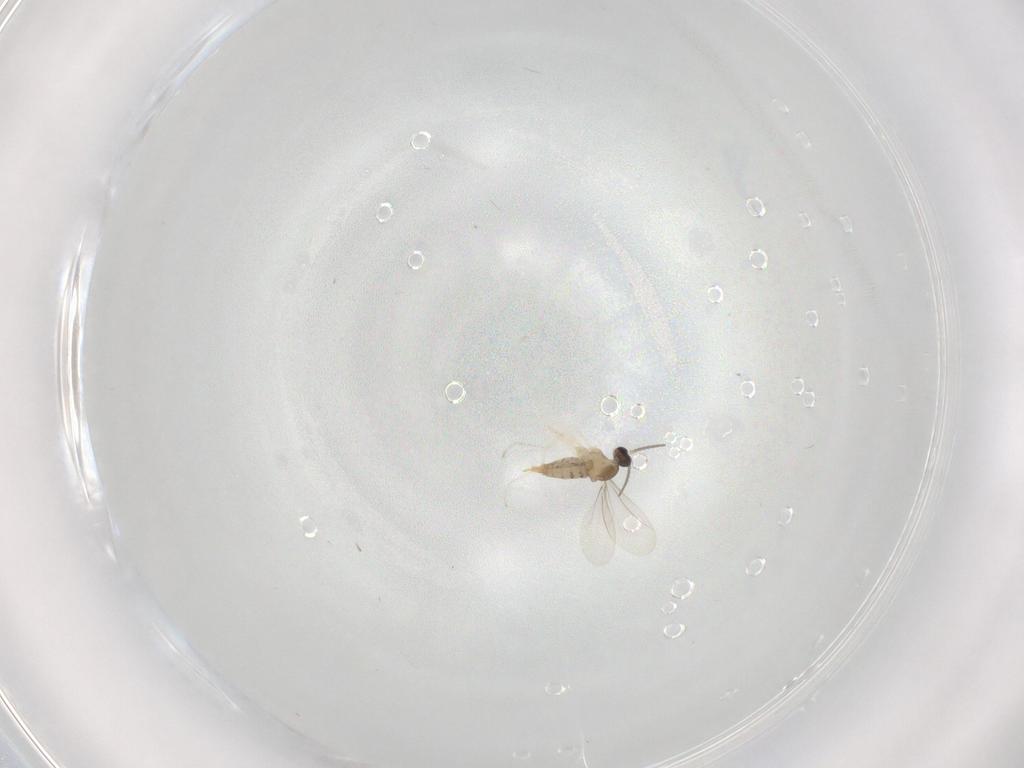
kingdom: Animalia
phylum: Arthropoda
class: Insecta
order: Diptera
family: Cecidomyiidae
